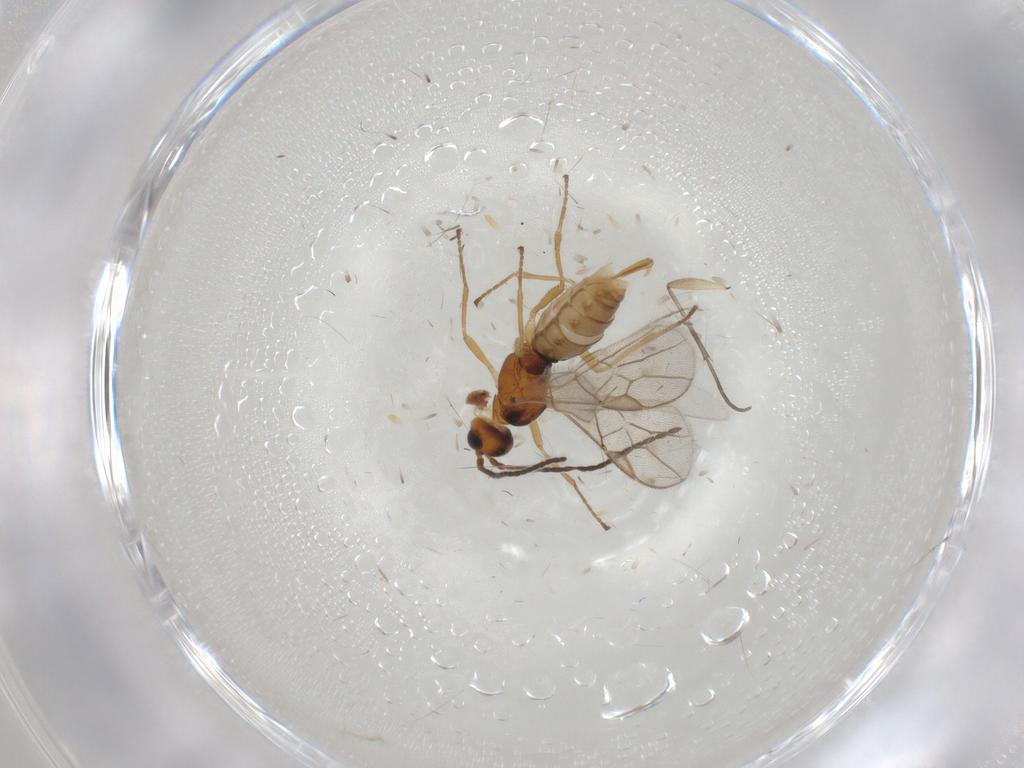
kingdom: Animalia
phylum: Arthropoda
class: Insecta
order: Hymenoptera
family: Braconidae
